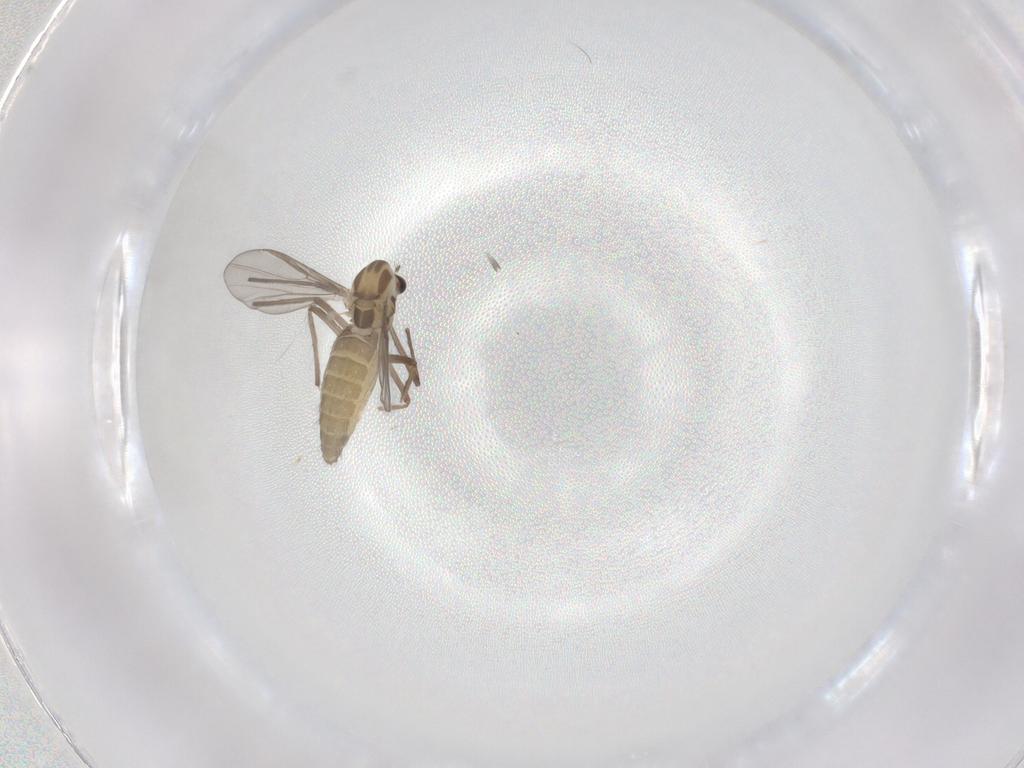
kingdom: Animalia
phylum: Arthropoda
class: Insecta
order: Diptera
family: Chironomidae
